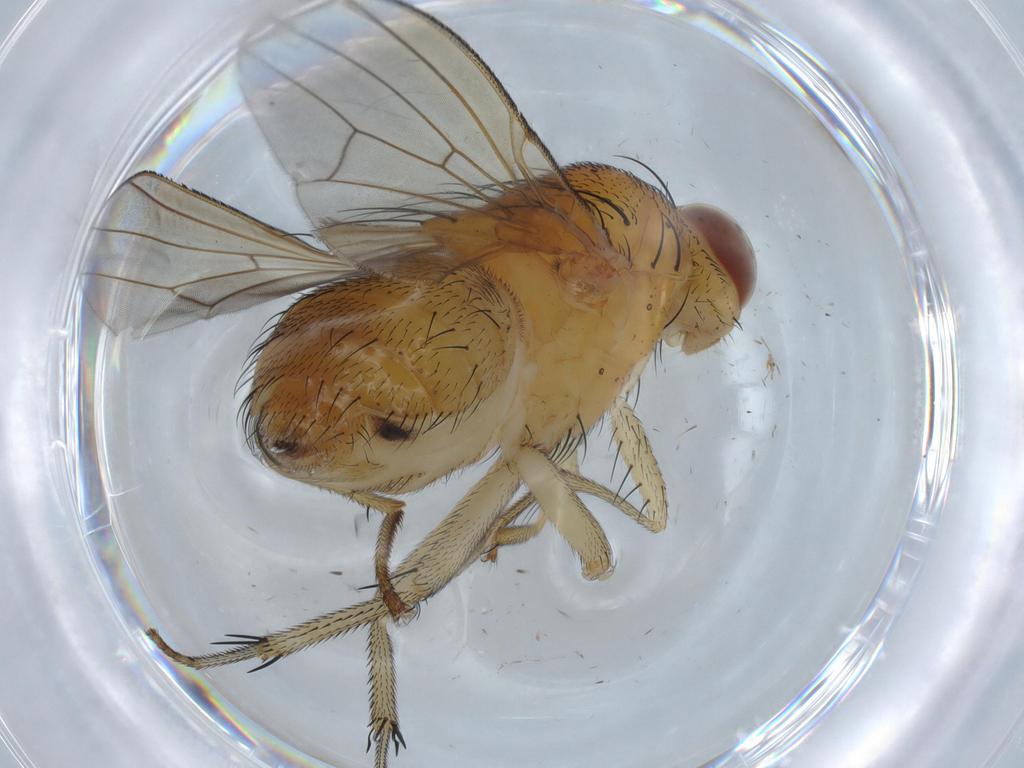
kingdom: Animalia
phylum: Arthropoda
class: Insecta
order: Diptera
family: Lauxaniidae
